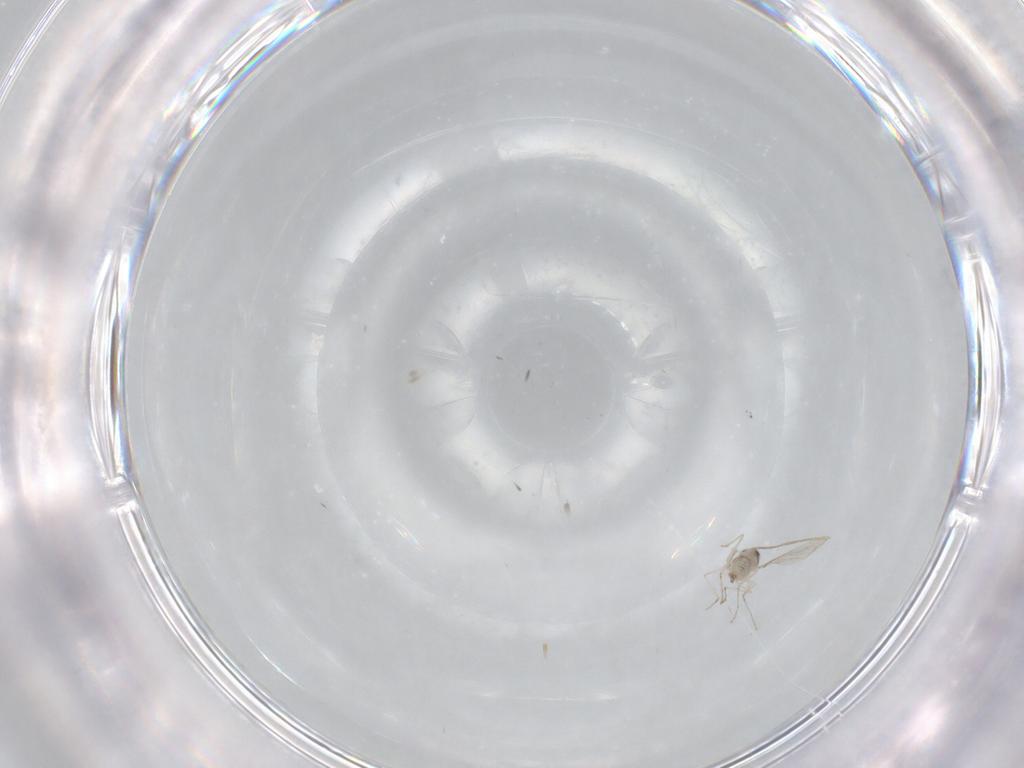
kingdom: Animalia
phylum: Arthropoda
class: Insecta
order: Diptera
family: Cecidomyiidae
